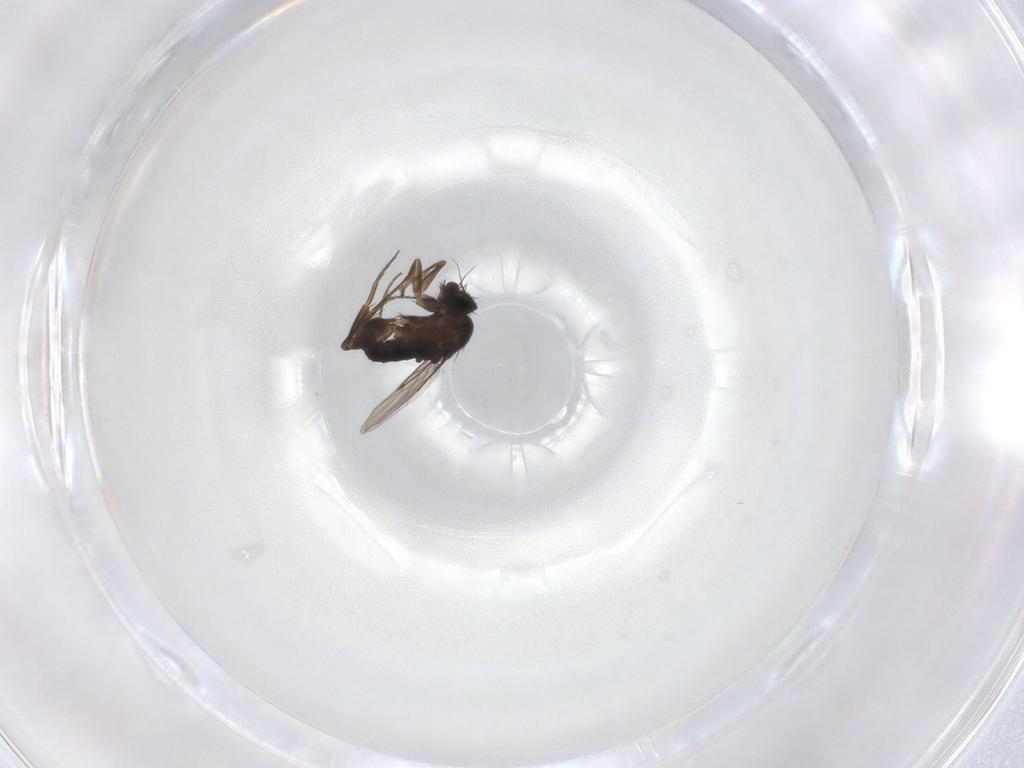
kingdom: Animalia
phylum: Arthropoda
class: Insecta
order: Diptera
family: Phoridae
